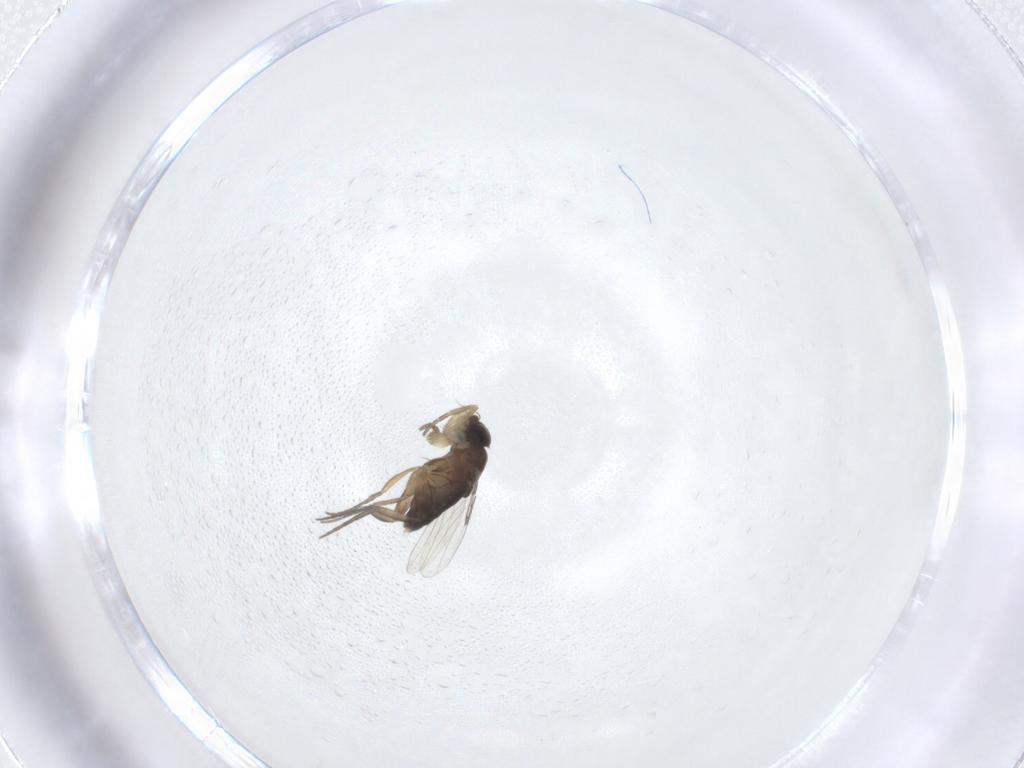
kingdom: Animalia
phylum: Arthropoda
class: Insecta
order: Diptera
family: Phoridae
